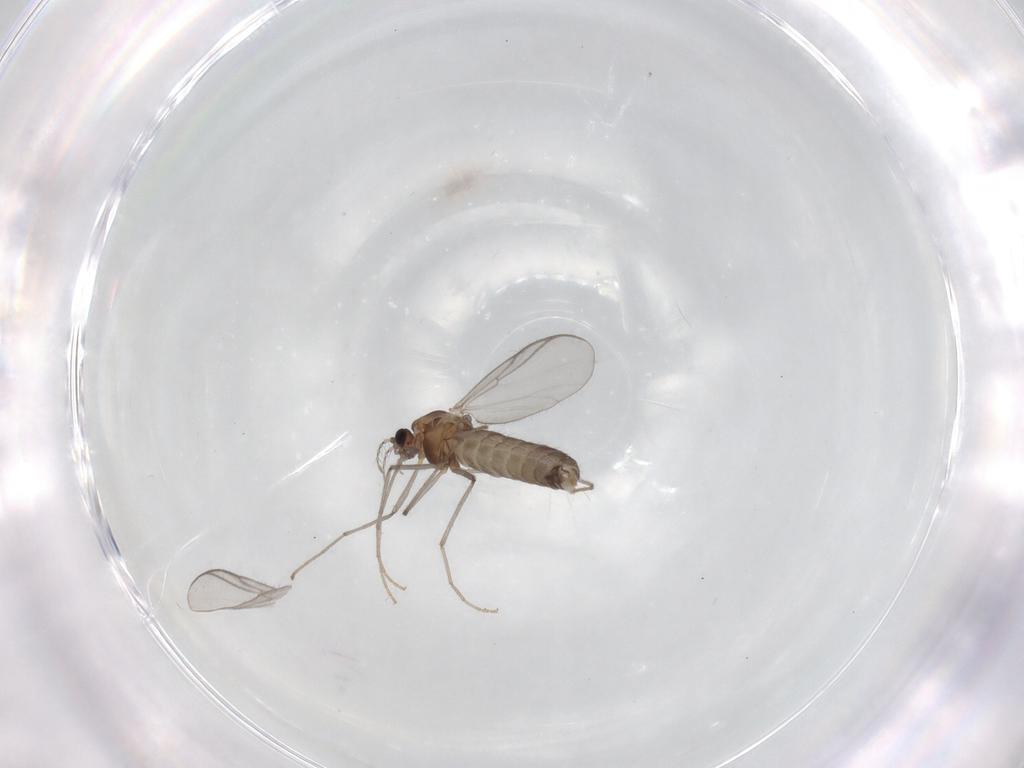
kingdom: Animalia
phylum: Arthropoda
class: Insecta
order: Diptera
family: Chironomidae
